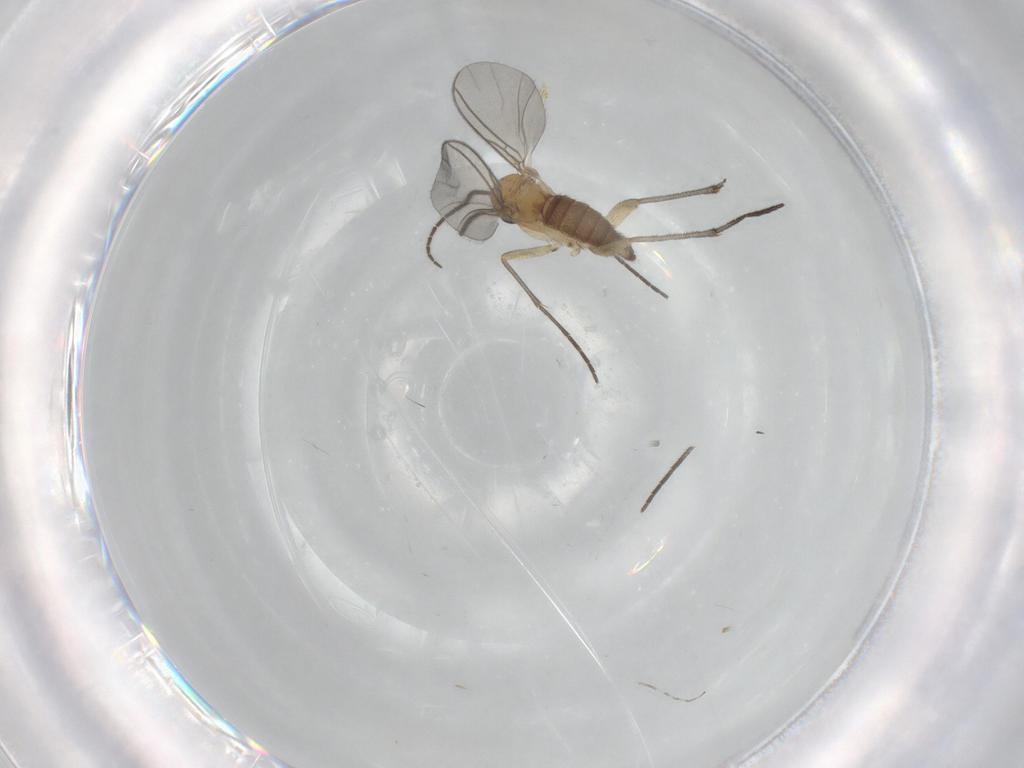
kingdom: Animalia
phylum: Arthropoda
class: Insecta
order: Diptera
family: Sciaridae
